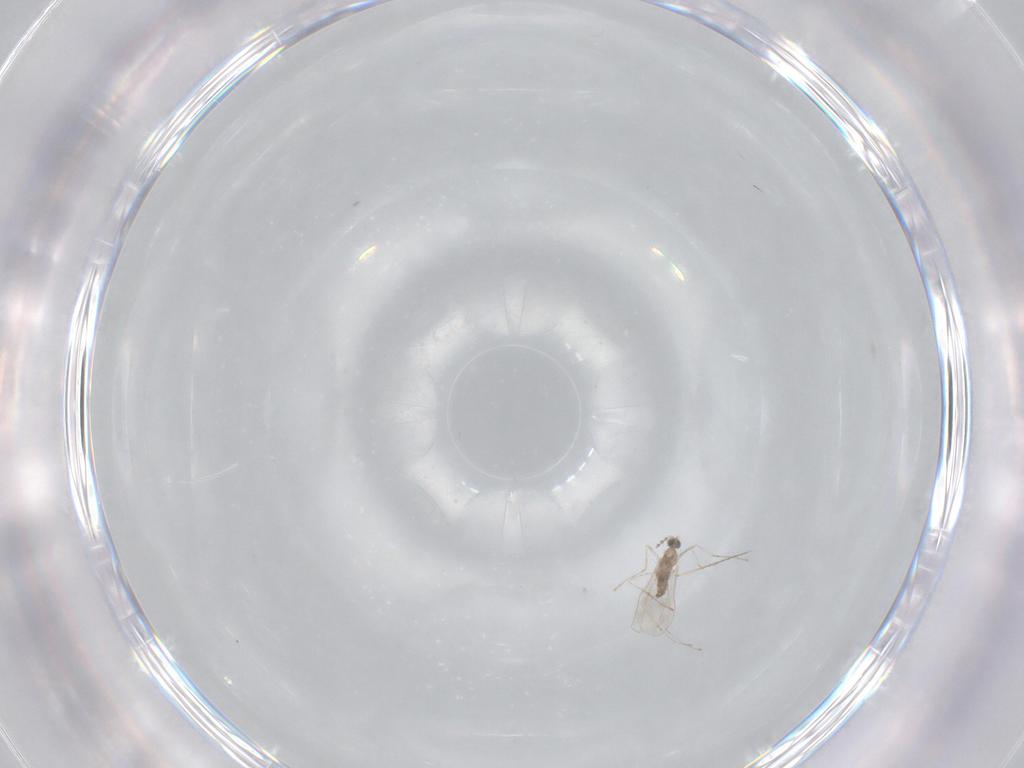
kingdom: Animalia
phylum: Arthropoda
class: Insecta
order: Diptera
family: Cecidomyiidae
